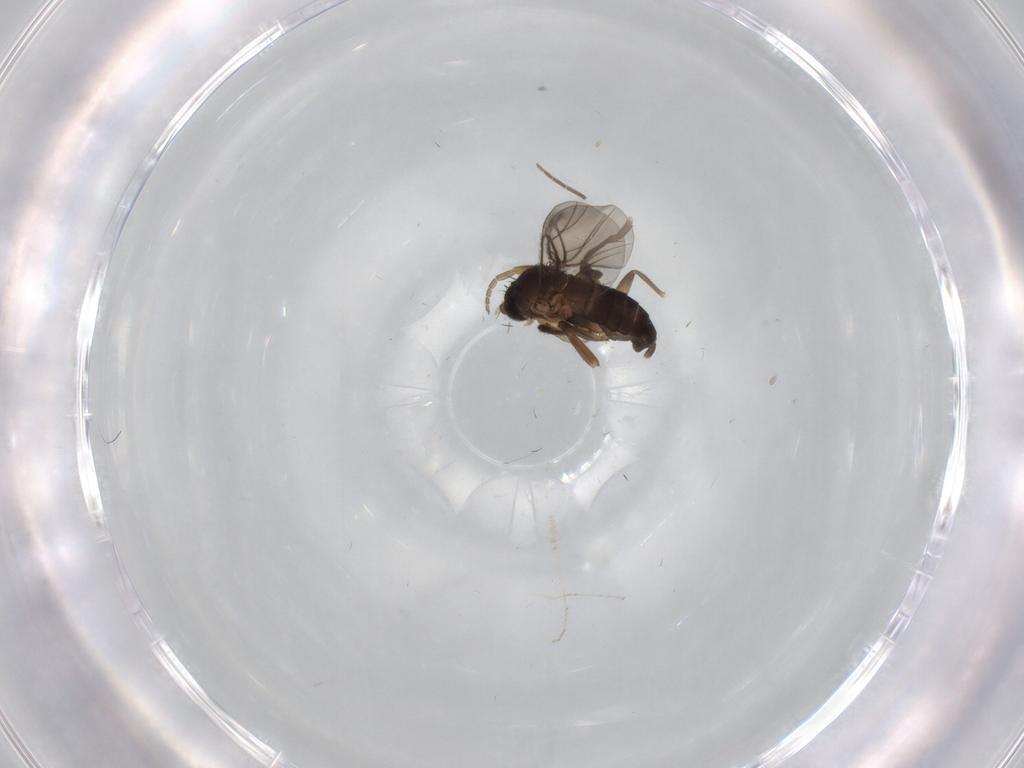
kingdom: Animalia
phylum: Arthropoda
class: Insecta
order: Diptera
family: Phoridae
